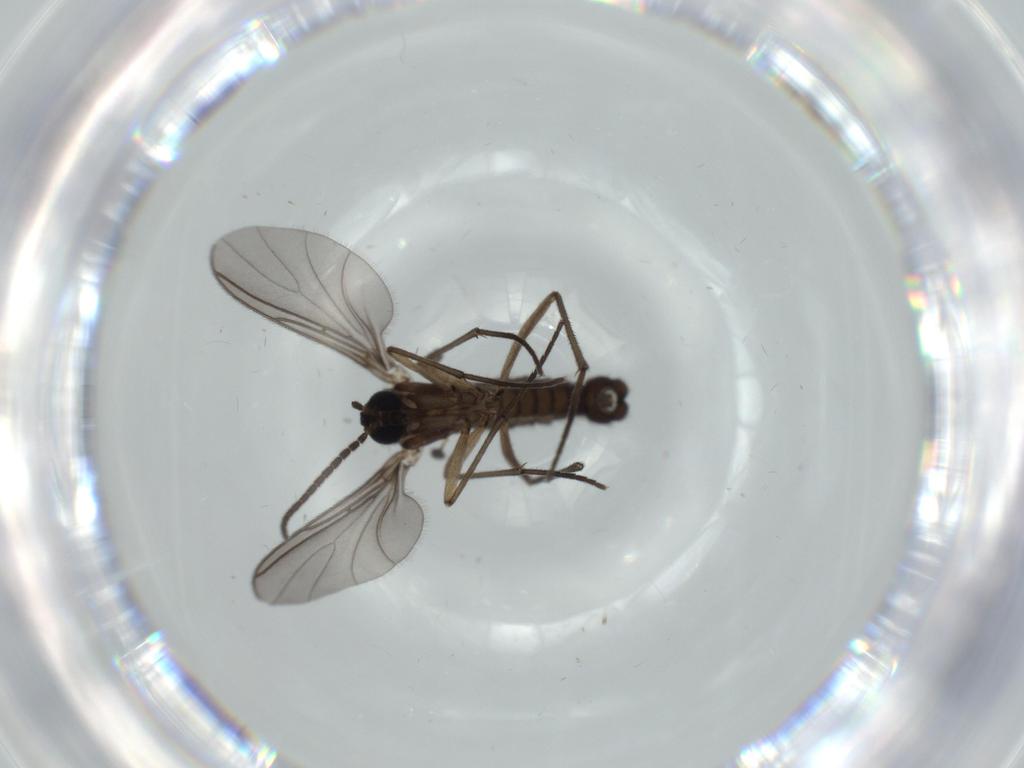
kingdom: Animalia
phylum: Arthropoda
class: Insecta
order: Diptera
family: Sciaridae
